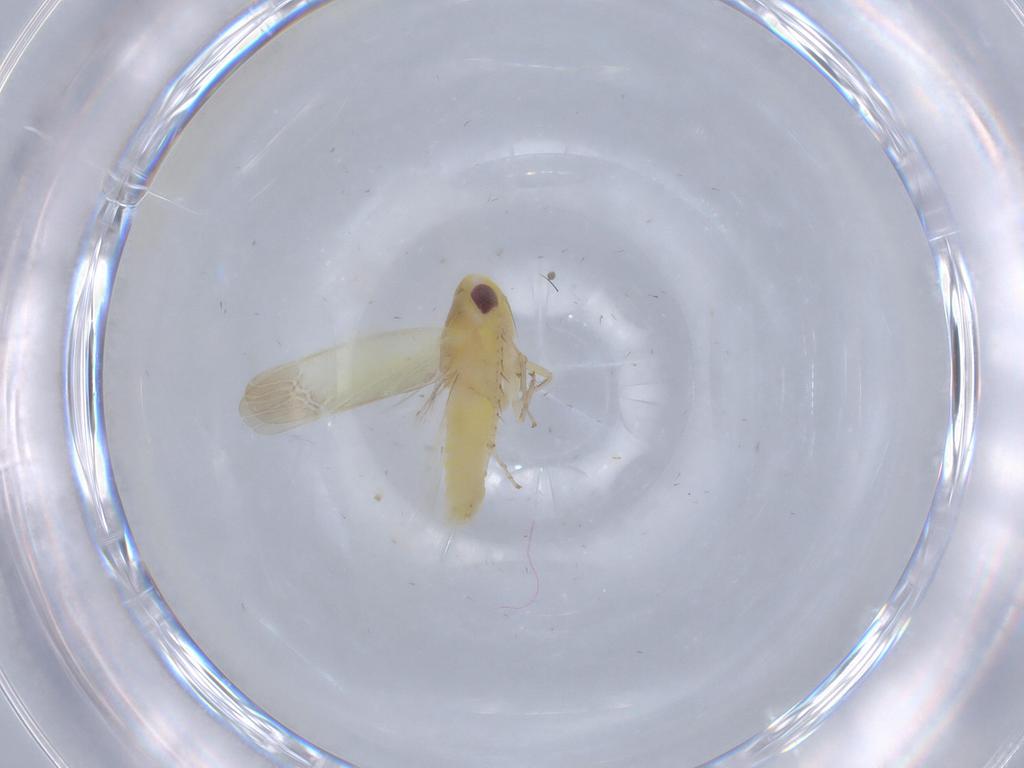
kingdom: Animalia
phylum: Arthropoda
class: Insecta
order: Hemiptera
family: Cicadellidae
